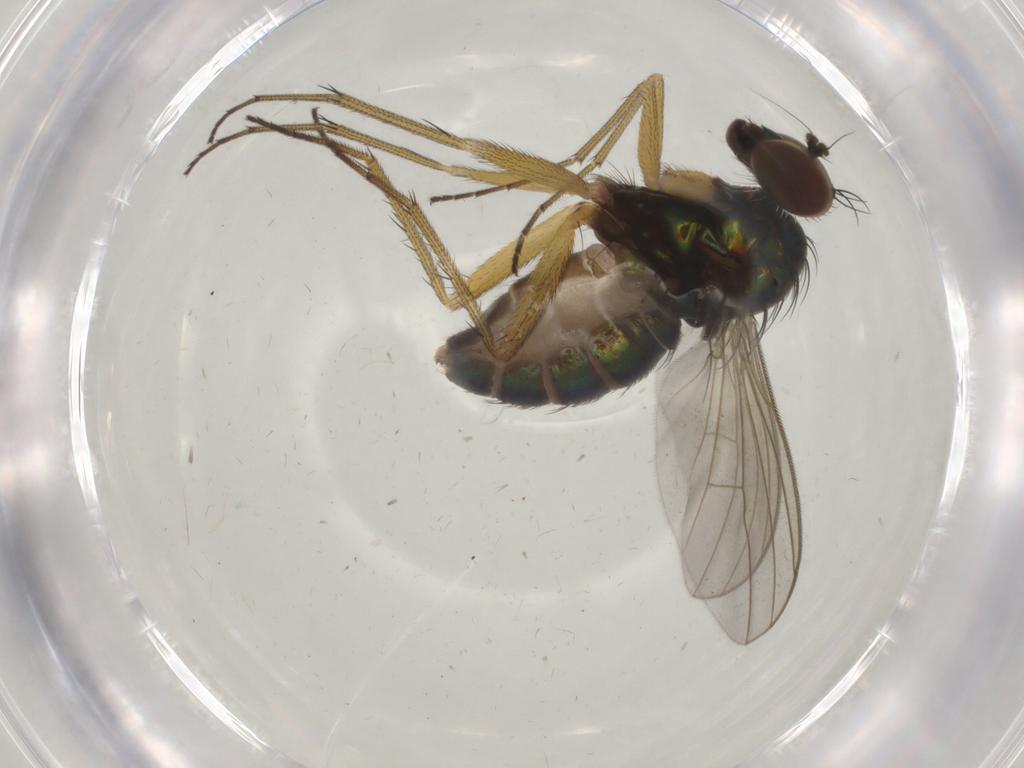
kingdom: Animalia
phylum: Arthropoda
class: Insecta
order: Diptera
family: Dolichopodidae
